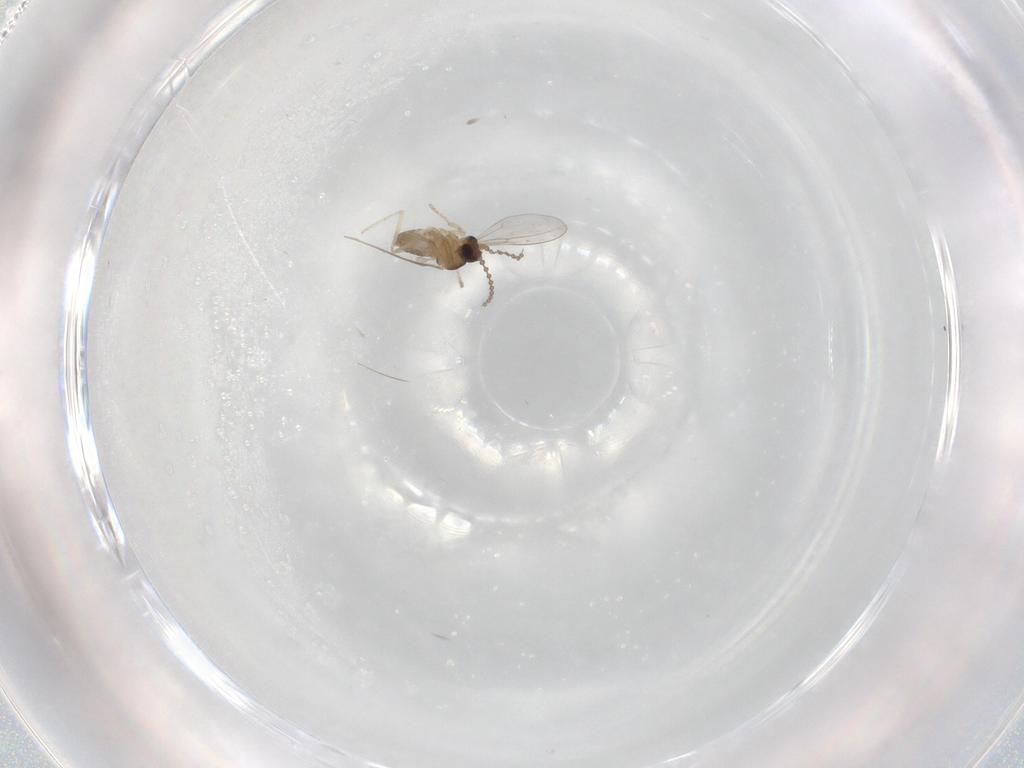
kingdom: Animalia
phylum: Arthropoda
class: Insecta
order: Diptera
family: Cecidomyiidae
